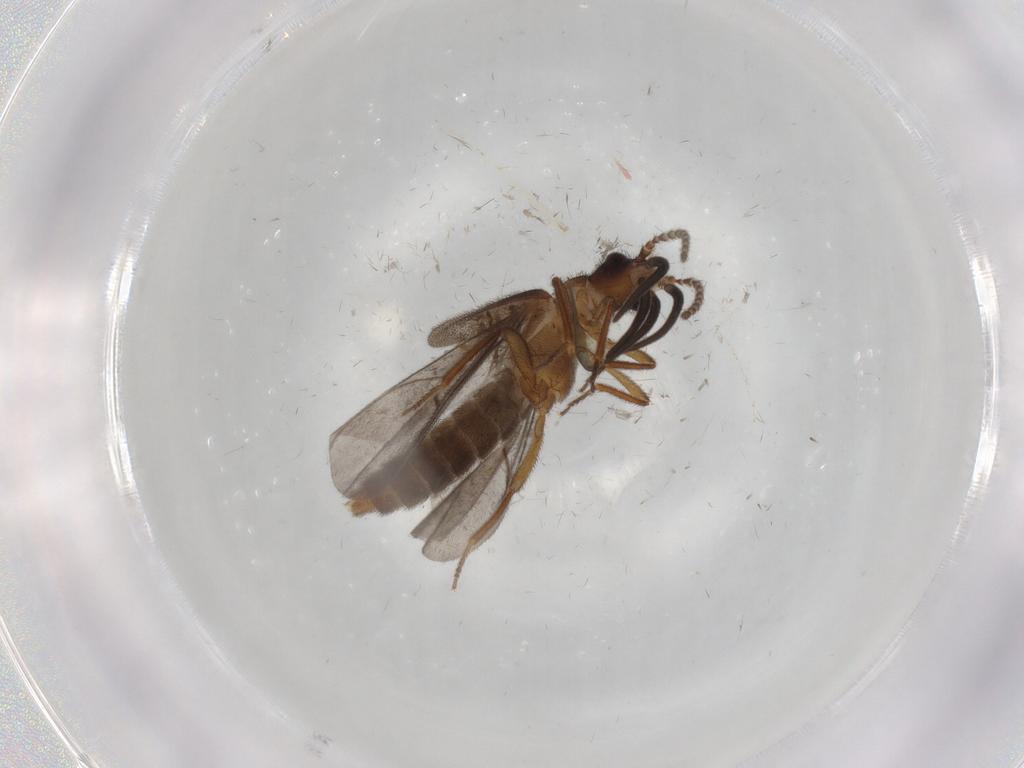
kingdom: Animalia
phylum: Arthropoda
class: Insecta
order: Coleoptera
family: Omethidae
